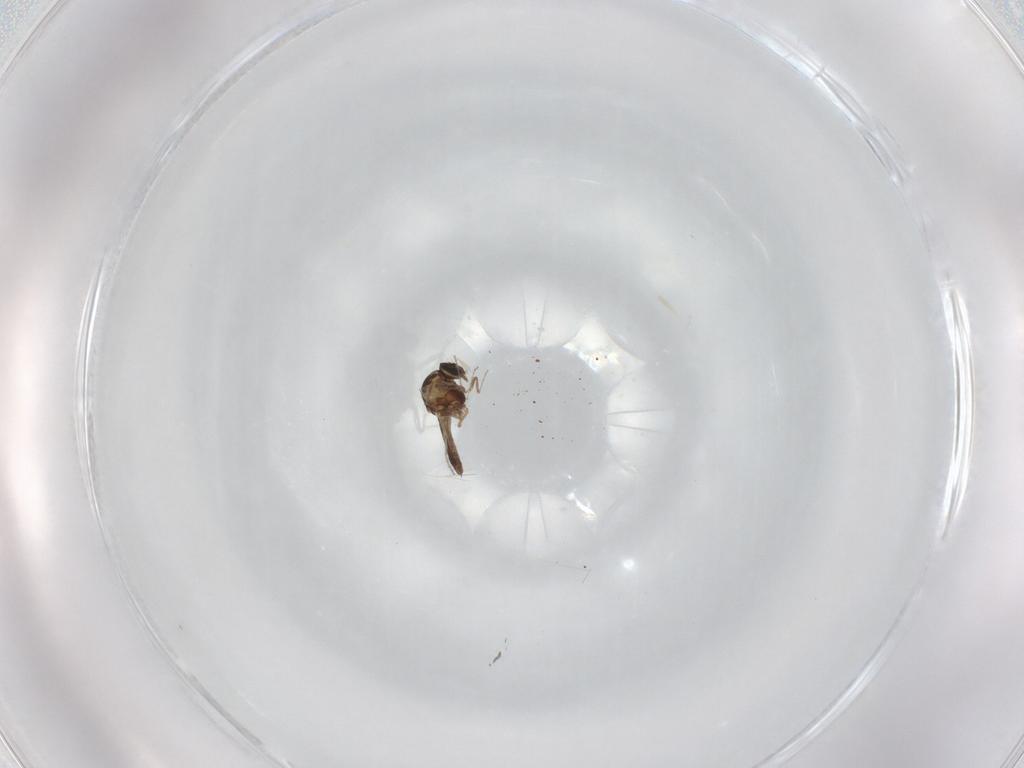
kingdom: Animalia
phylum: Arthropoda
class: Insecta
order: Diptera
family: Ceratopogonidae
